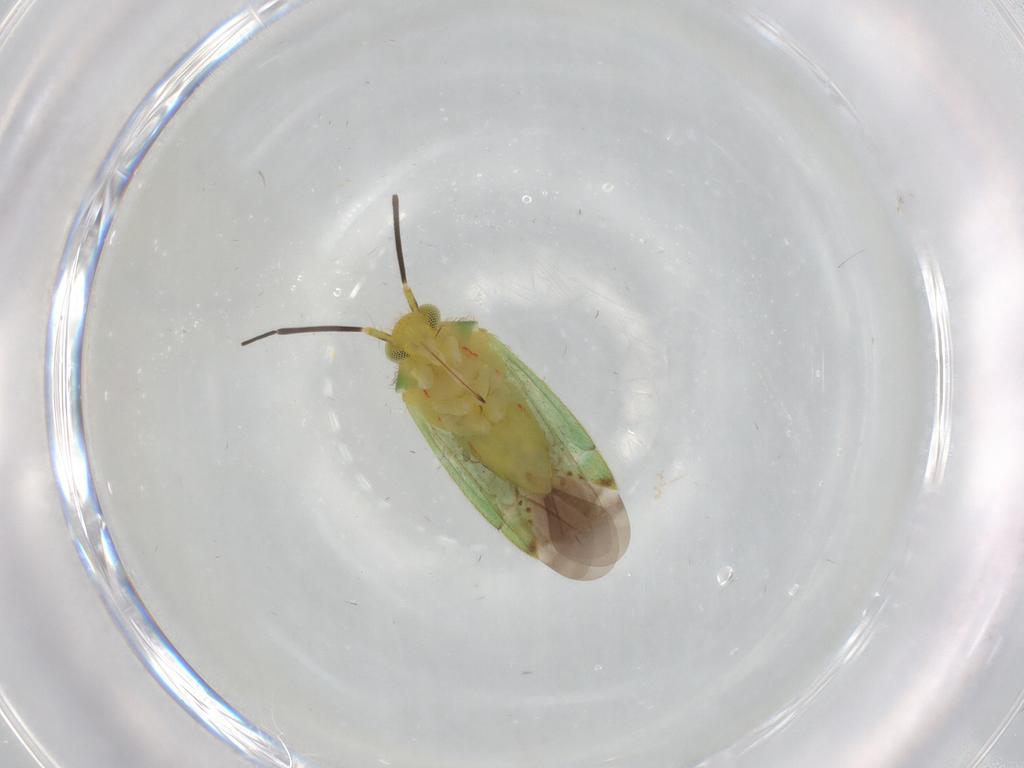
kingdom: Animalia
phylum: Arthropoda
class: Insecta
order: Hemiptera
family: Miridae
